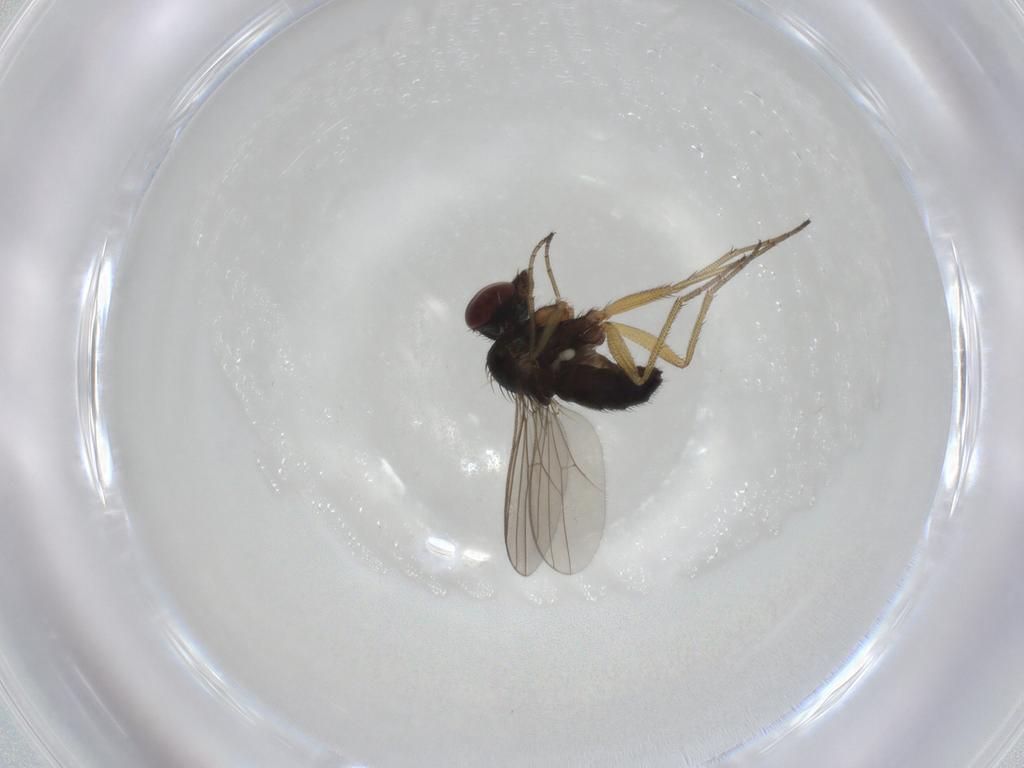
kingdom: Animalia
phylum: Arthropoda
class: Insecta
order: Diptera
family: Dolichopodidae
